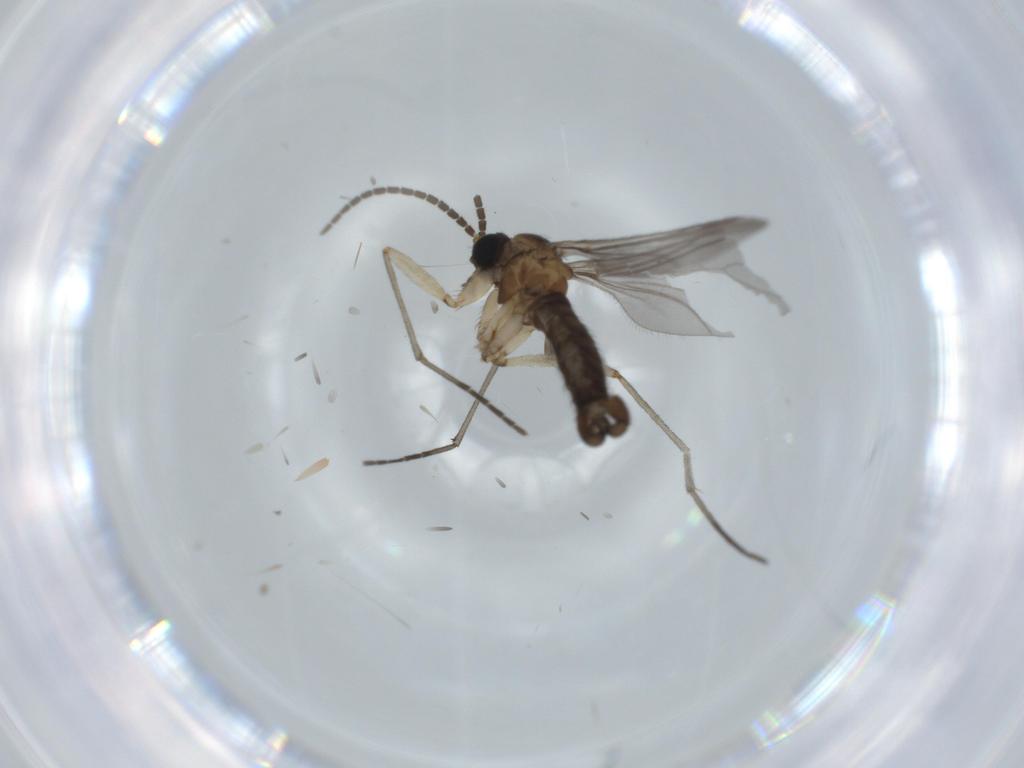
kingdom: Animalia
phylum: Arthropoda
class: Insecta
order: Diptera
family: Sciaridae
